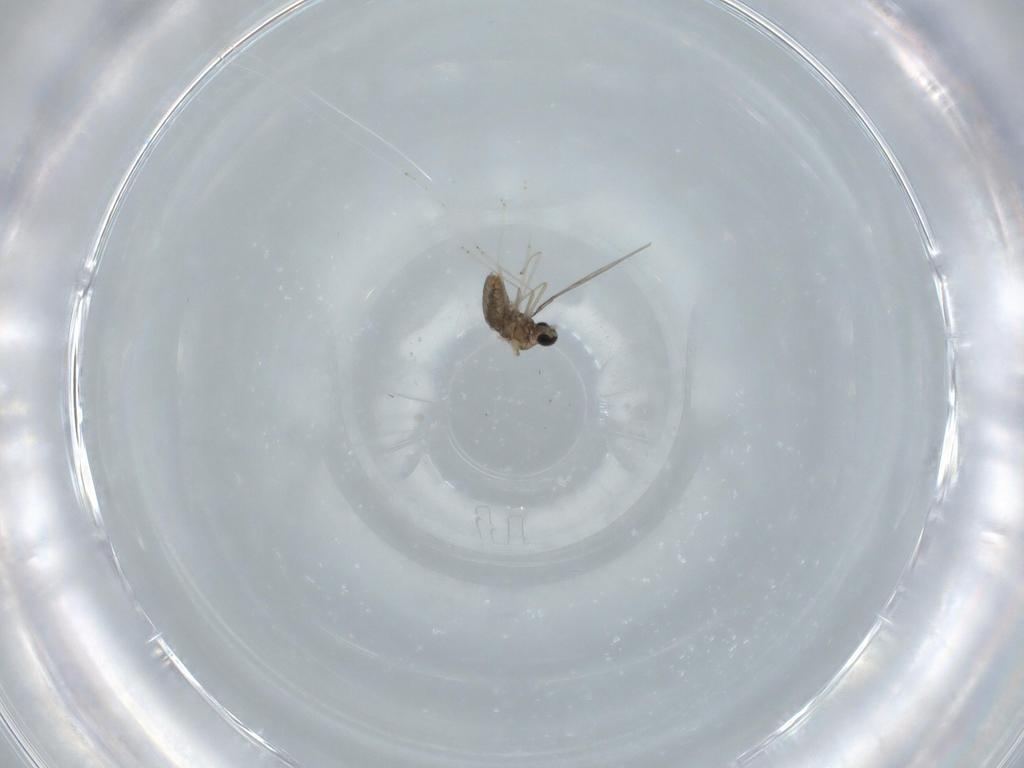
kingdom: Animalia
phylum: Arthropoda
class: Insecta
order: Diptera
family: Cecidomyiidae
